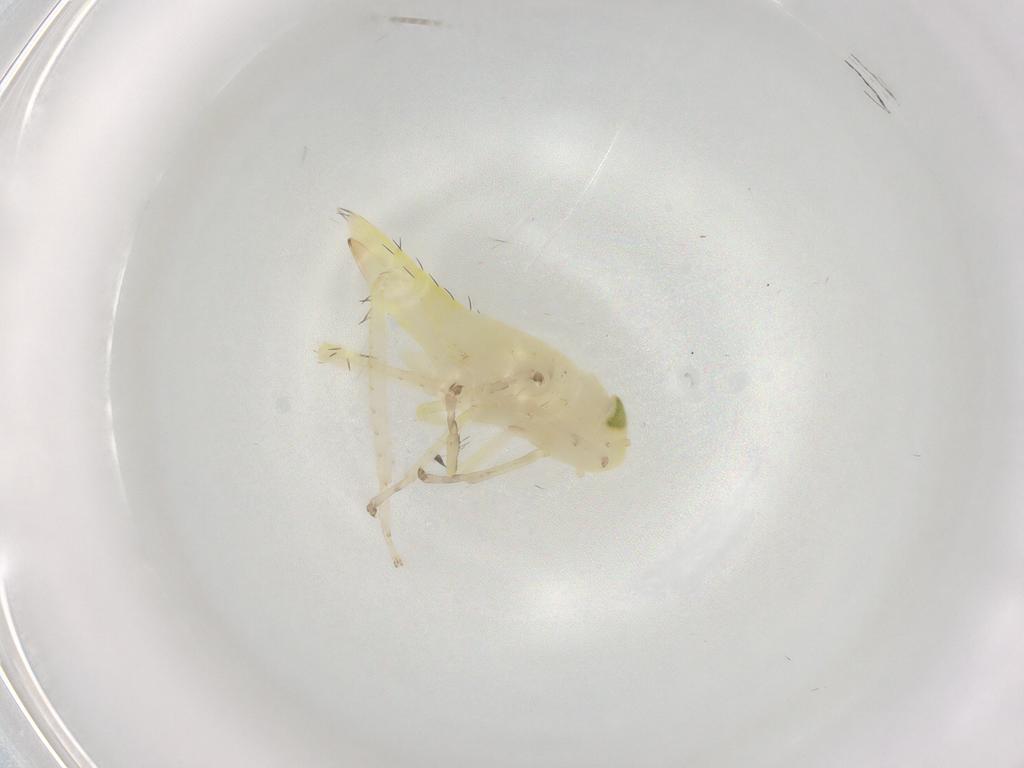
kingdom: Animalia
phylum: Arthropoda
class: Insecta
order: Hemiptera
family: Cicadellidae
